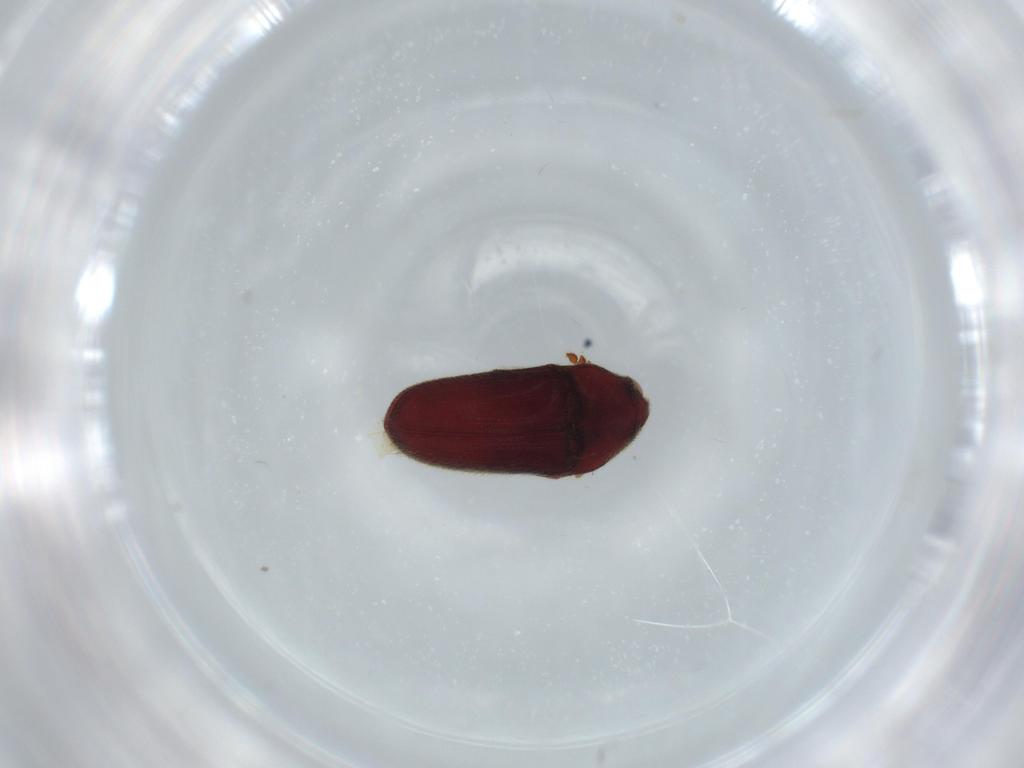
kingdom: Animalia
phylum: Arthropoda
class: Insecta
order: Coleoptera
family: Throscidae
